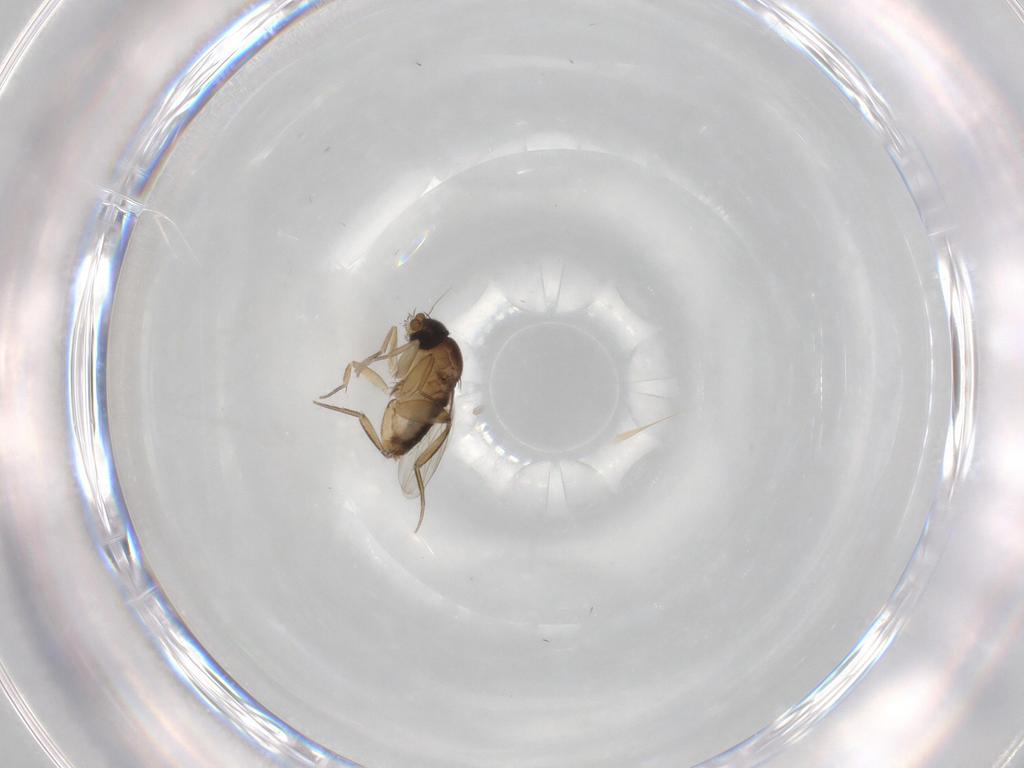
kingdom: Animalia
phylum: Arthropoda
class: Insecta
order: Diptera
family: Phoridae
